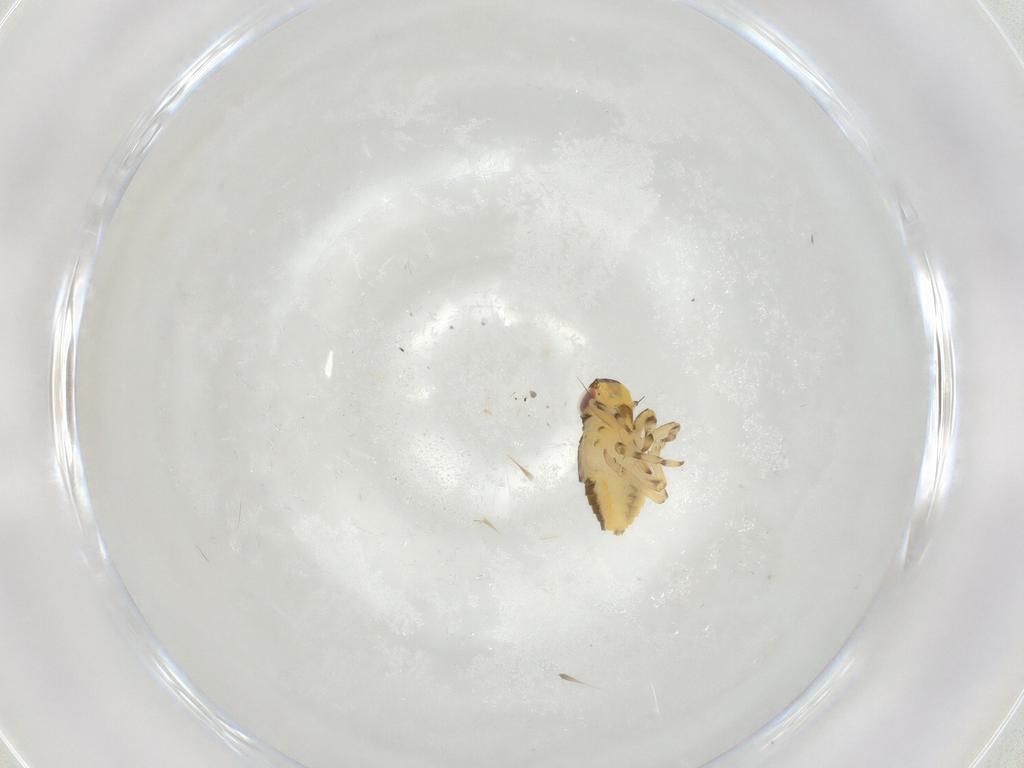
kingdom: Animalia
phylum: Arthropoda
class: Insecta
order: Hemiptera
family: Issidae
